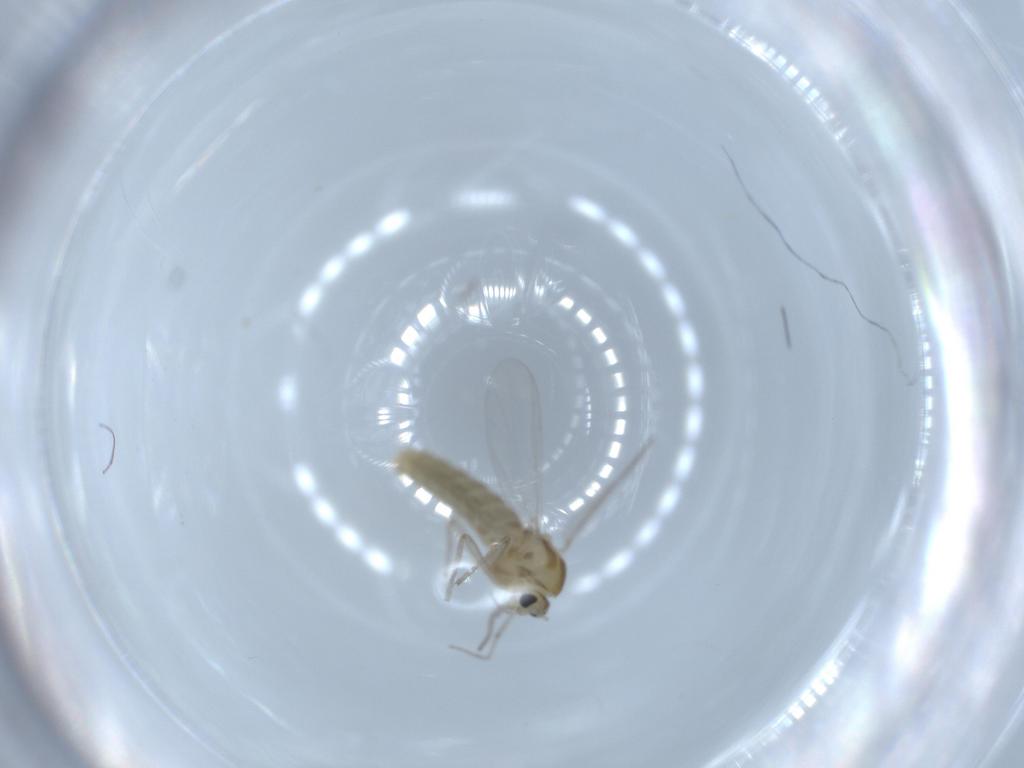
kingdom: Animalia
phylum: Arthropoda
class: Insecta
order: Diptera
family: Chironomidae
